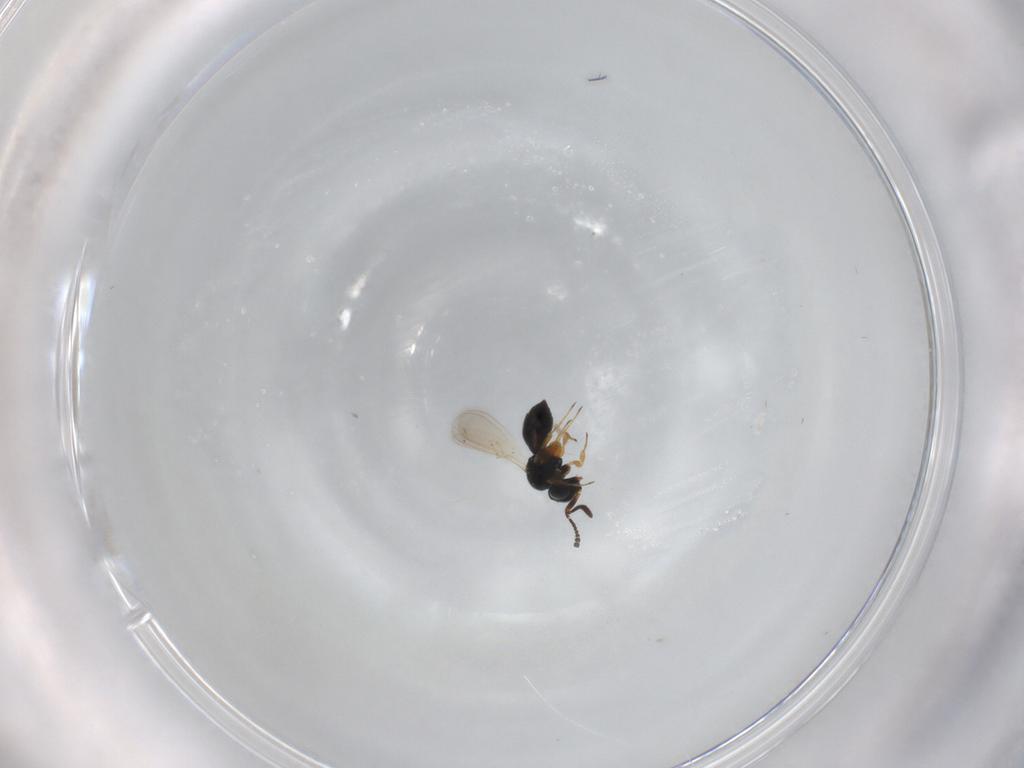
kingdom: Animalia
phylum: Arthropoda
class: Insecta
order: Hymenoptera
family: Scelionidae
